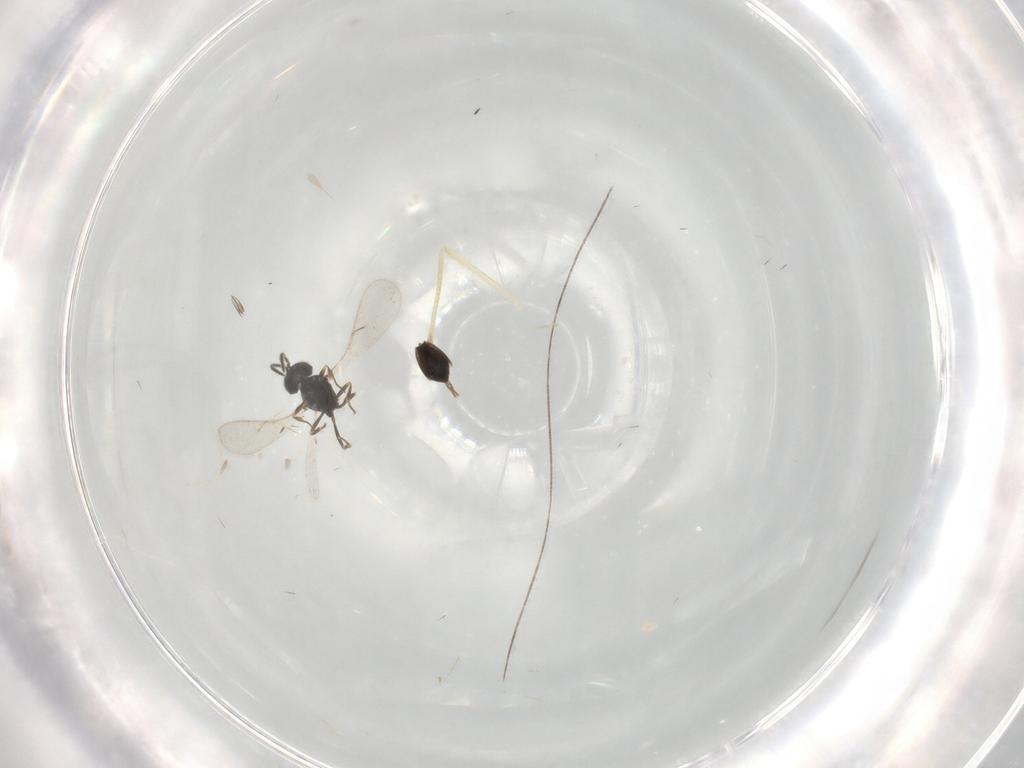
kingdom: Animalia
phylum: Arthropoda
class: Insecta
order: Hymenoptera
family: Scelionidae
